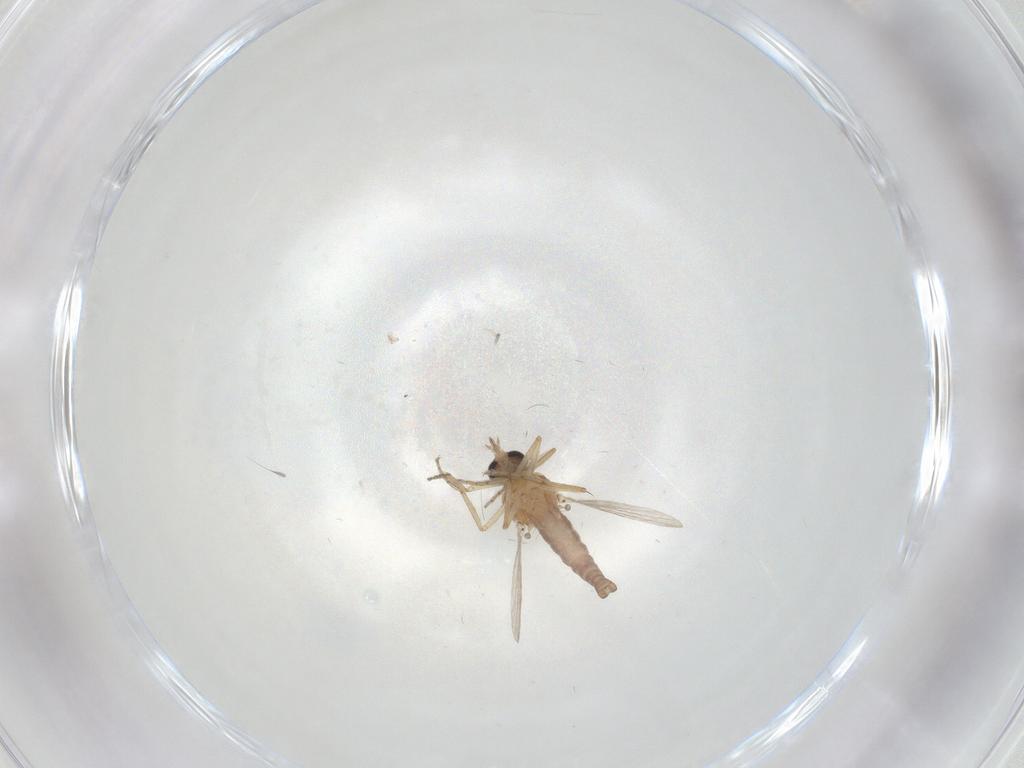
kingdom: Animalia
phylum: Arthropoda
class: Insecta
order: Diptera
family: Ceratopogonidae
